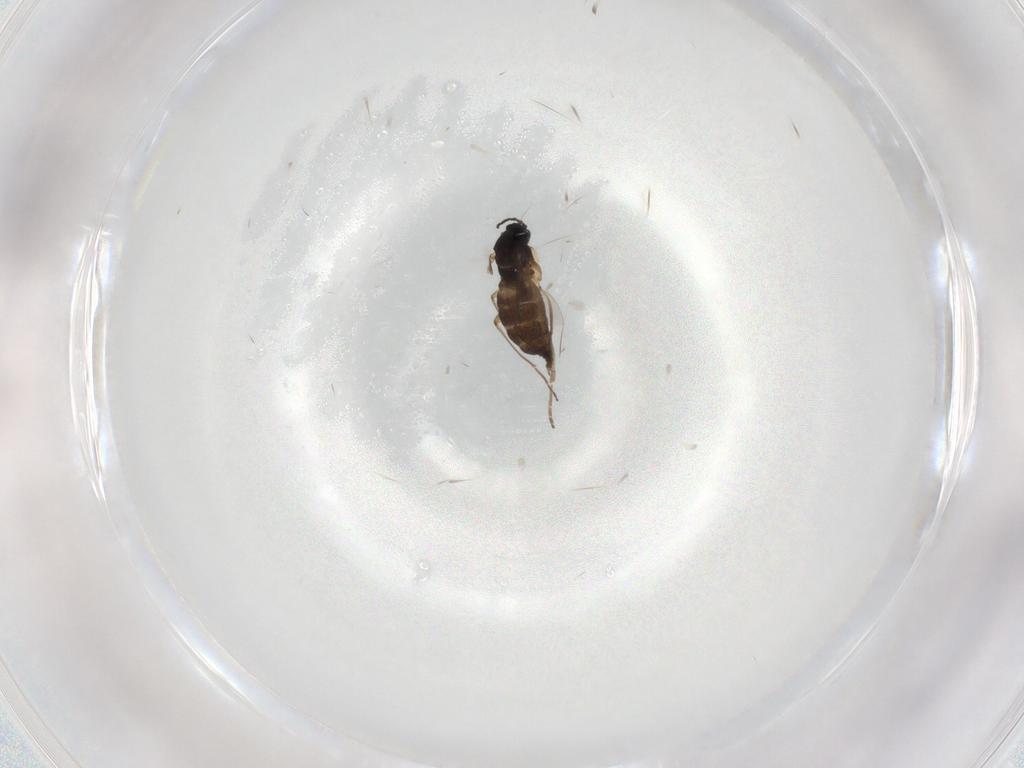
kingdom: Animalia
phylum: Arthropoda
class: Insecta
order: Diptera
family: Sciaridae
